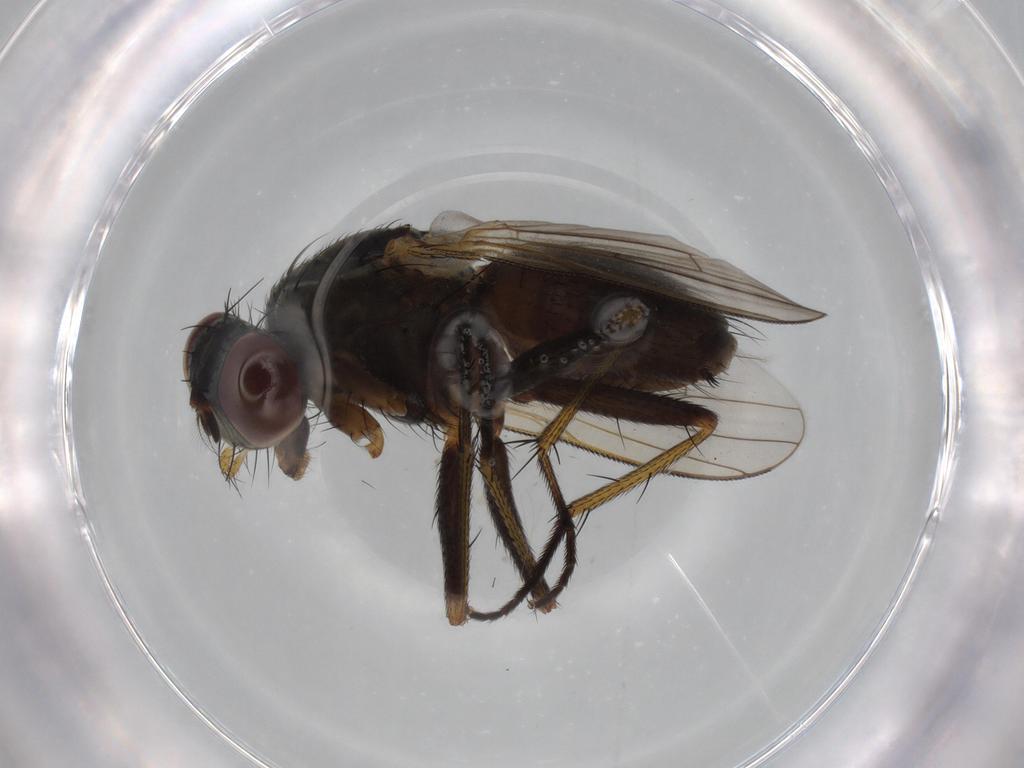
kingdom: Animalia
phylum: Arthropoda
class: Insecta
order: Diptera
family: Muscidae
